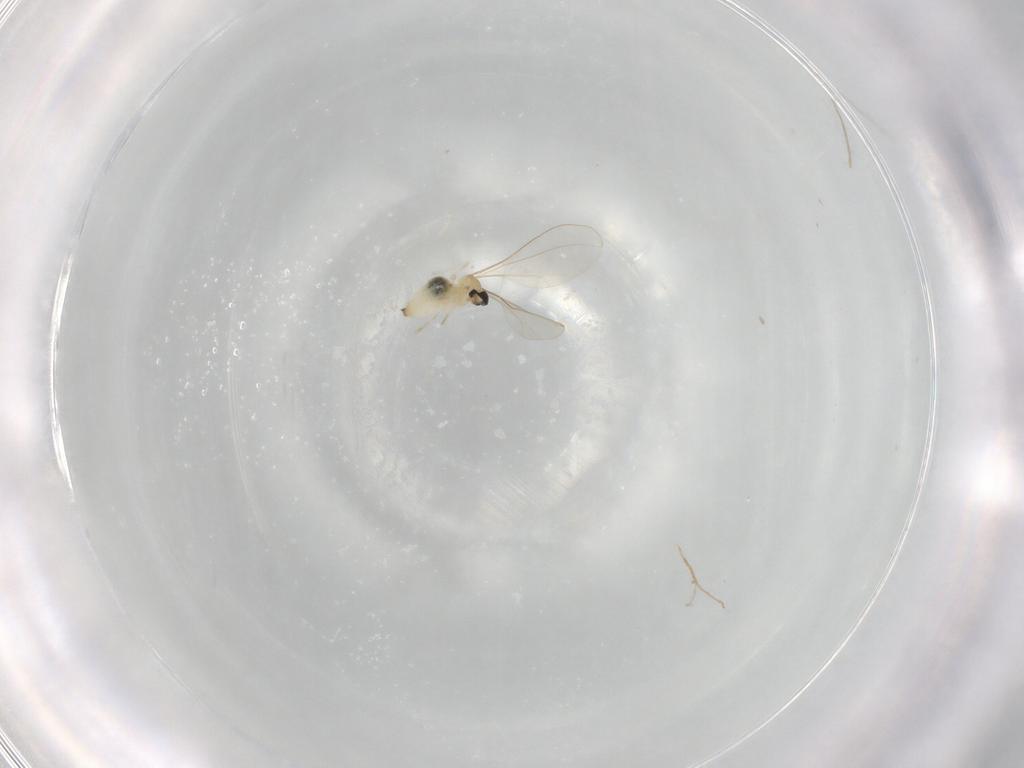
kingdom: Animalia
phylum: Arthropoda
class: Insecta
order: Diptera
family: Cecidomyiidae
